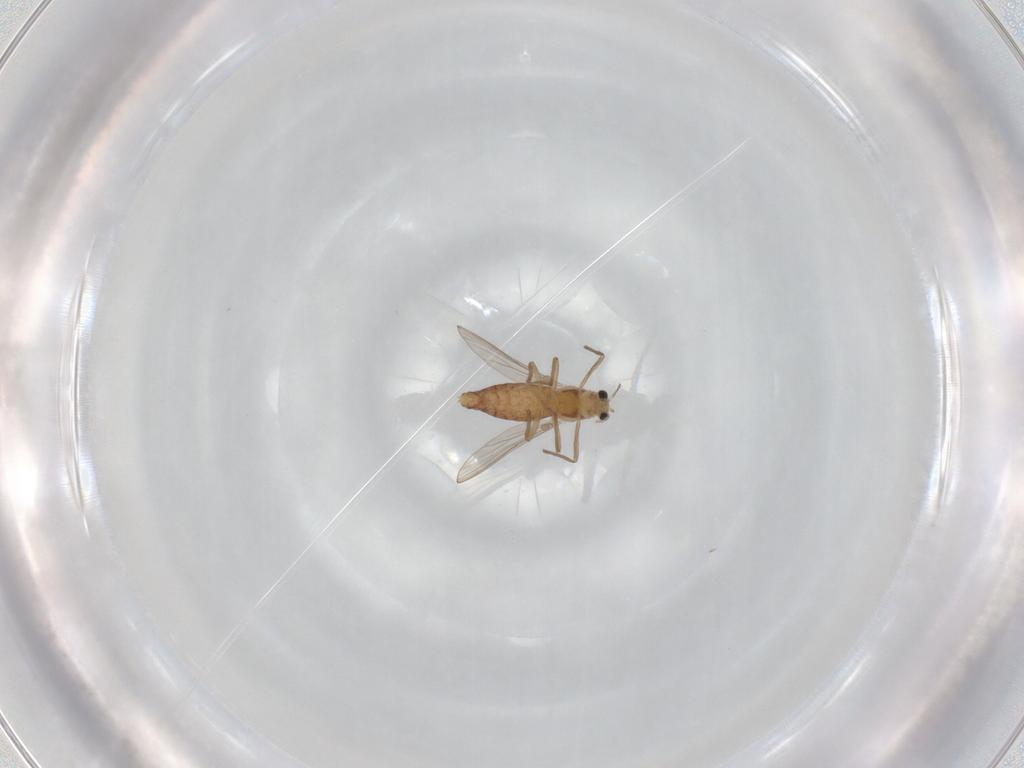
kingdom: Animalia
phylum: Arthropoda
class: Insecta
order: Diptera
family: Chironomidae
